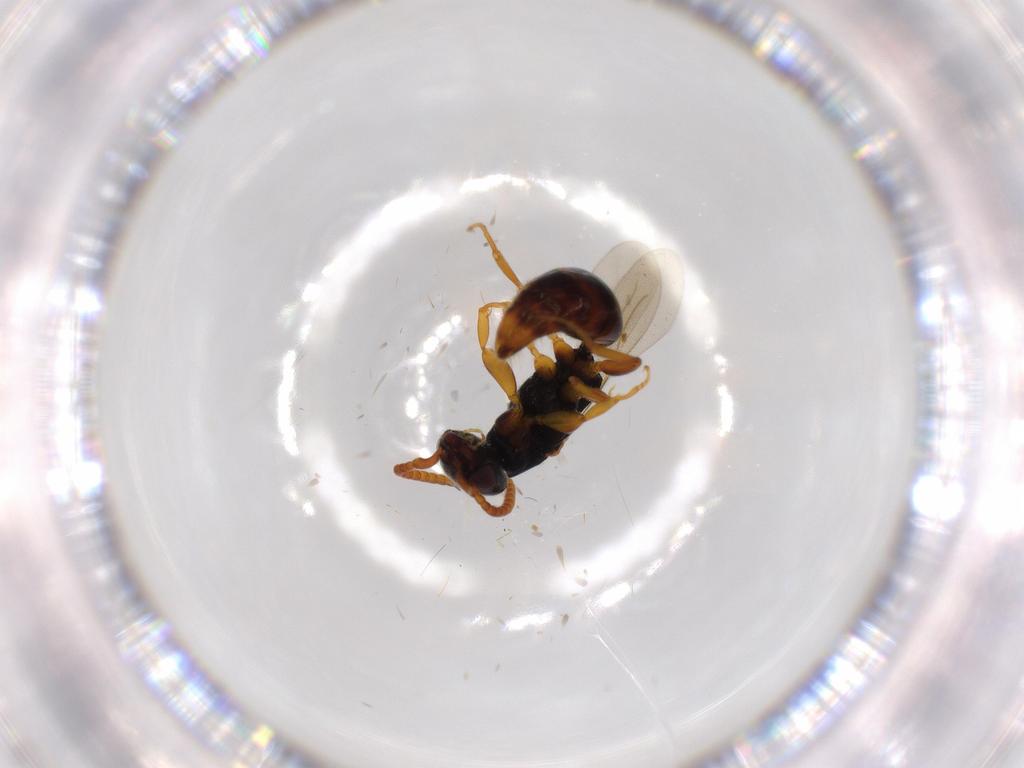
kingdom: Animalia
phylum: Arthropoda
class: Insecta
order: Hymenoptera
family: Bethylidae
